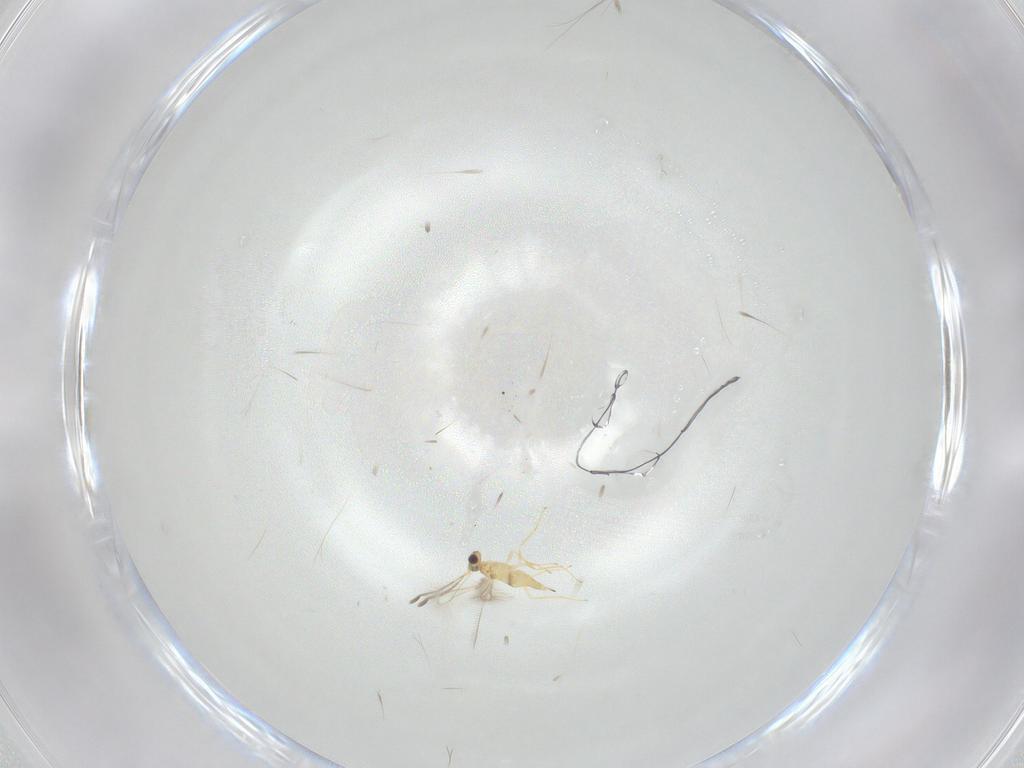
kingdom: Animalia
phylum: Arthropoda
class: Insecta
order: Hymenoptera
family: Mymaridae
